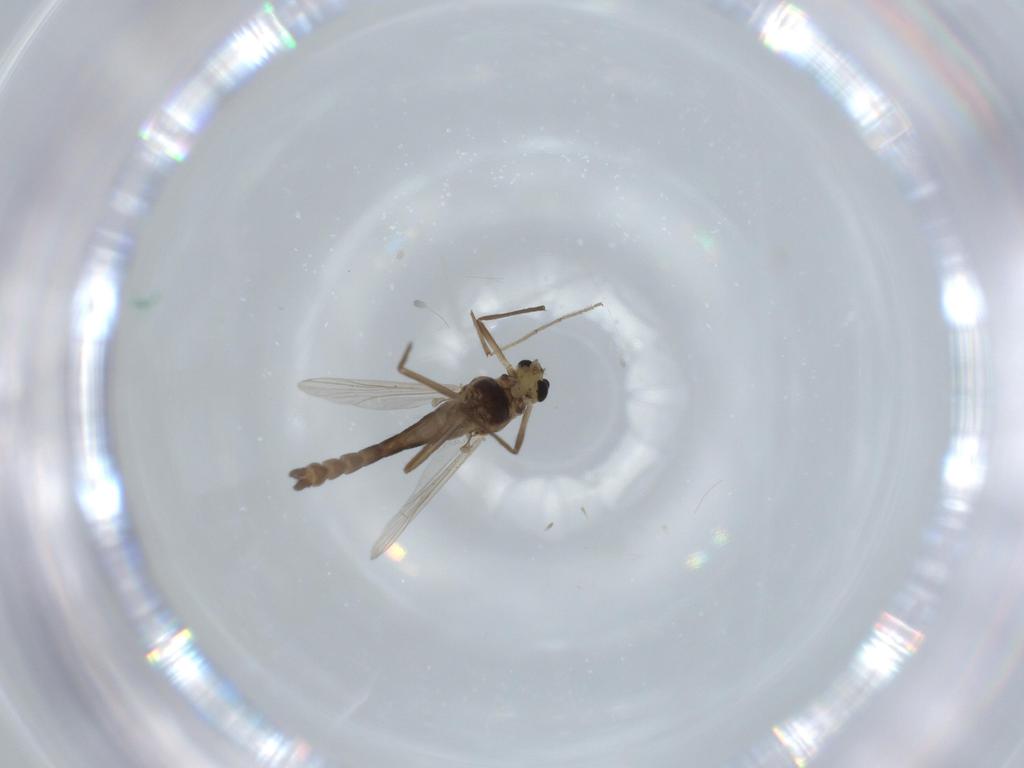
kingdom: Animalia
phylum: Arthropoda
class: Insecta
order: Diptera
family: Chironomidae
